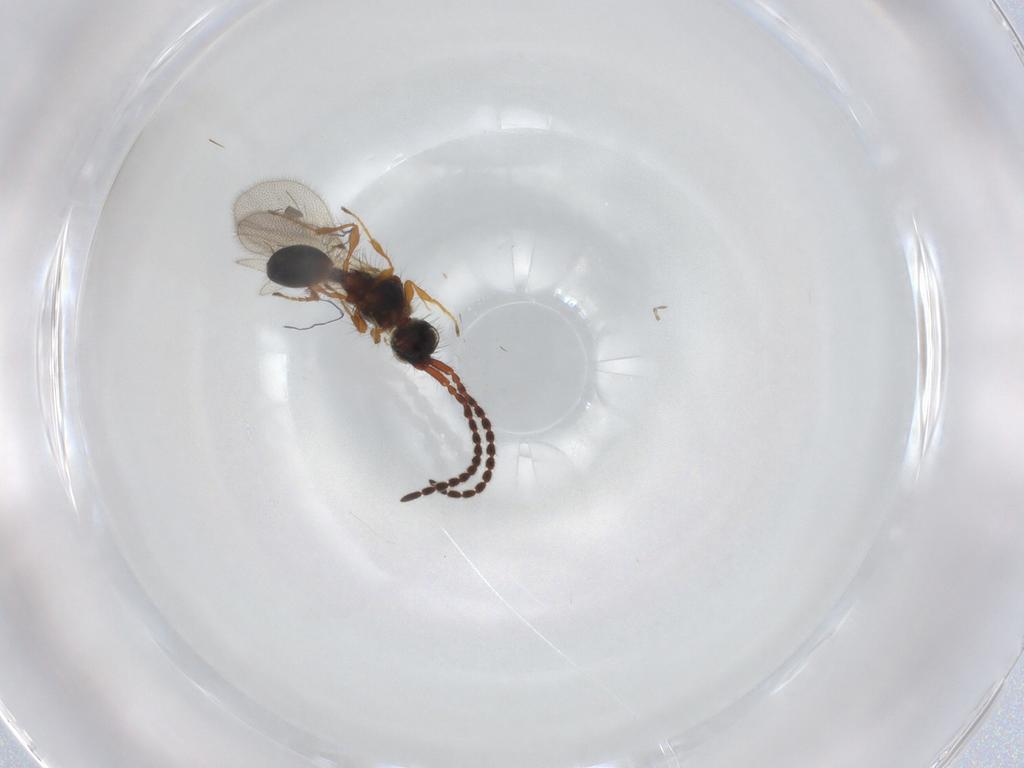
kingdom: Animalia
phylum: Arthropoda
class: Insecta
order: Hymenoptera
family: Diapriidae
